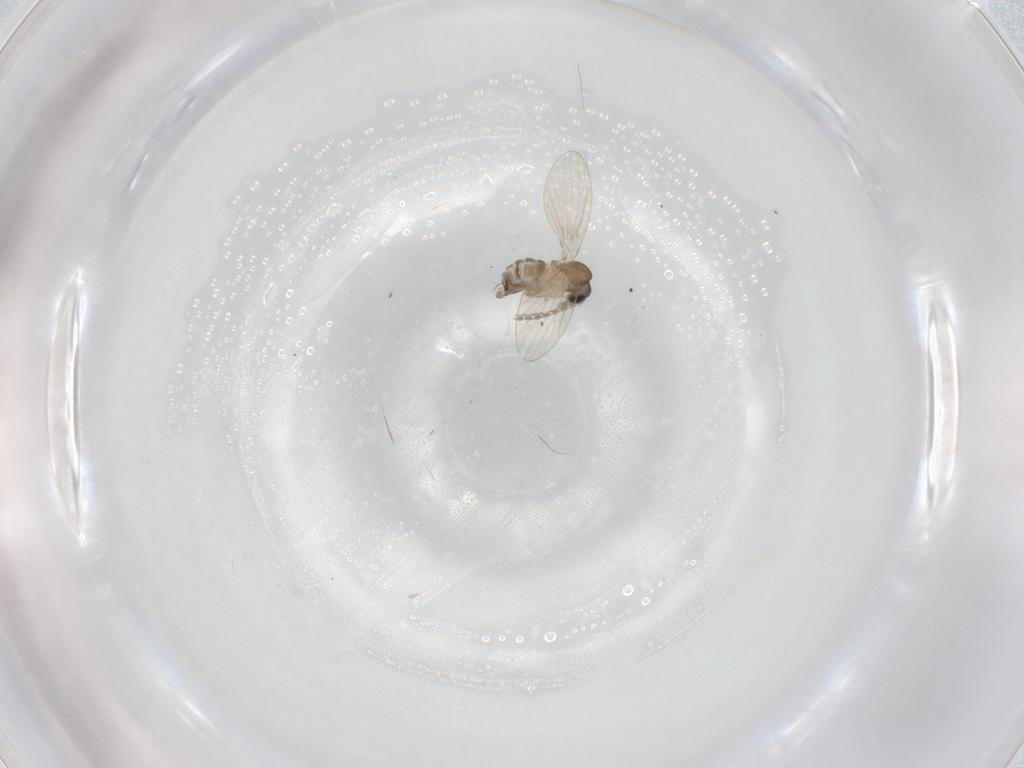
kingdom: Animalia
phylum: Arthropoda
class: Insecta
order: Diptera
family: Psychodidae
